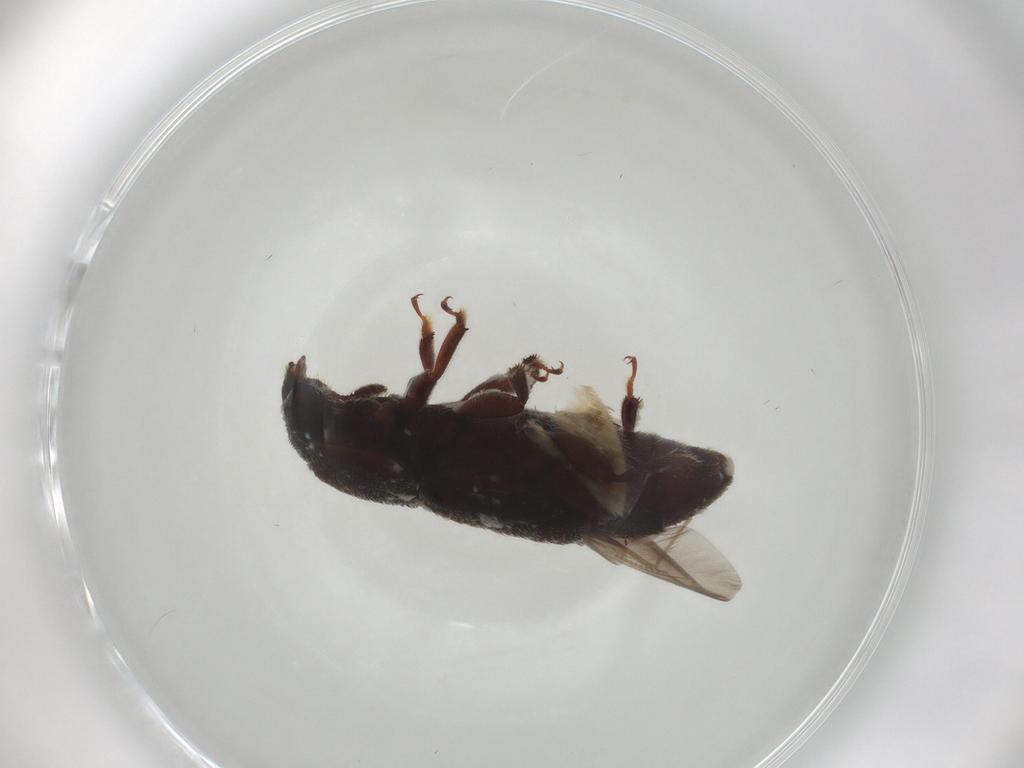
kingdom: Animalia
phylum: Arthropoda
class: Insecta
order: Coleoptera
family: Nitidulidae
